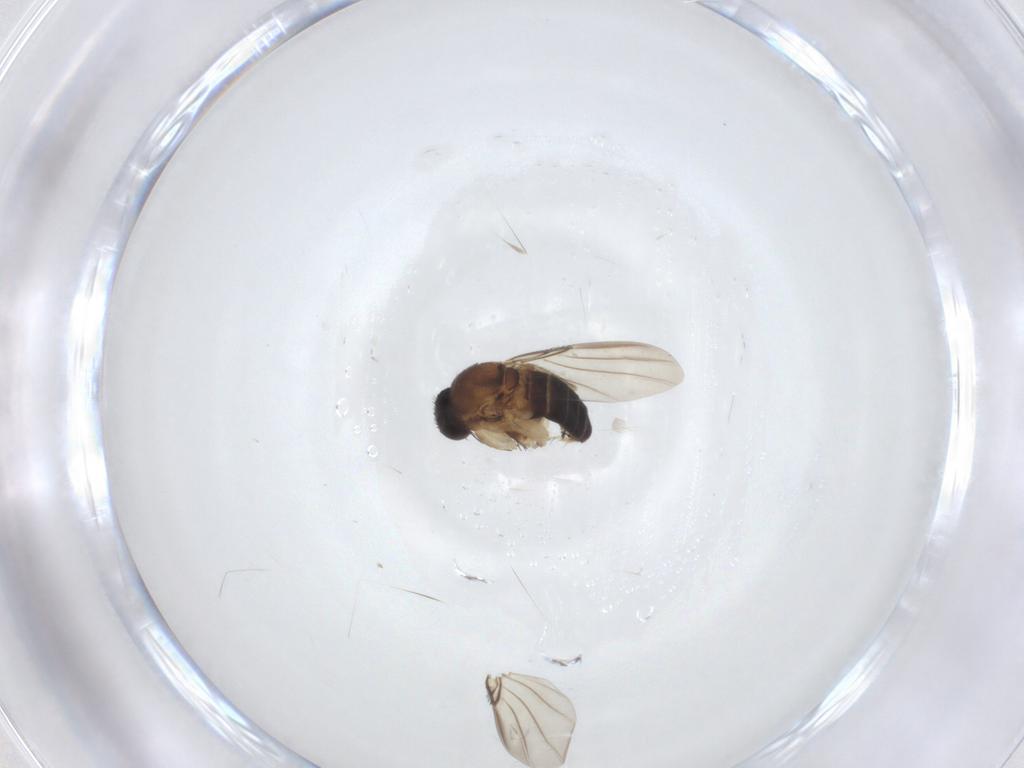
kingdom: Animalia
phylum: Arthropoda
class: Insecta
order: Diptera
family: Phoridae
